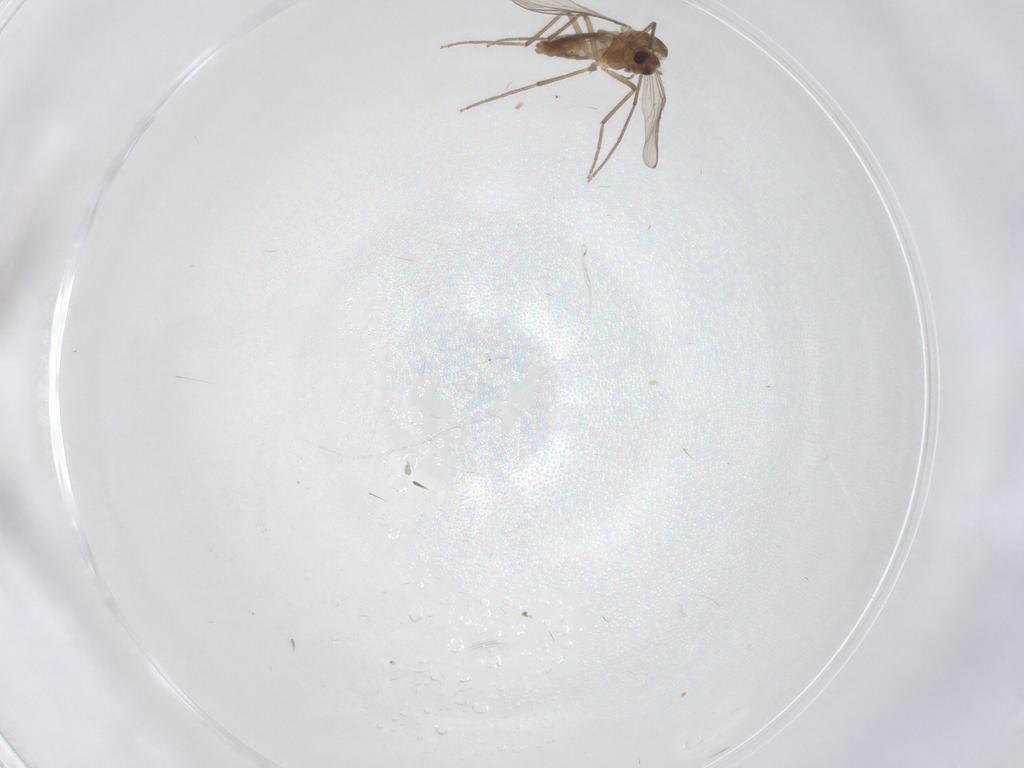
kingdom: Animalia
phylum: Arthropoda
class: Insecta
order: Diptera
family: Chironomidae
